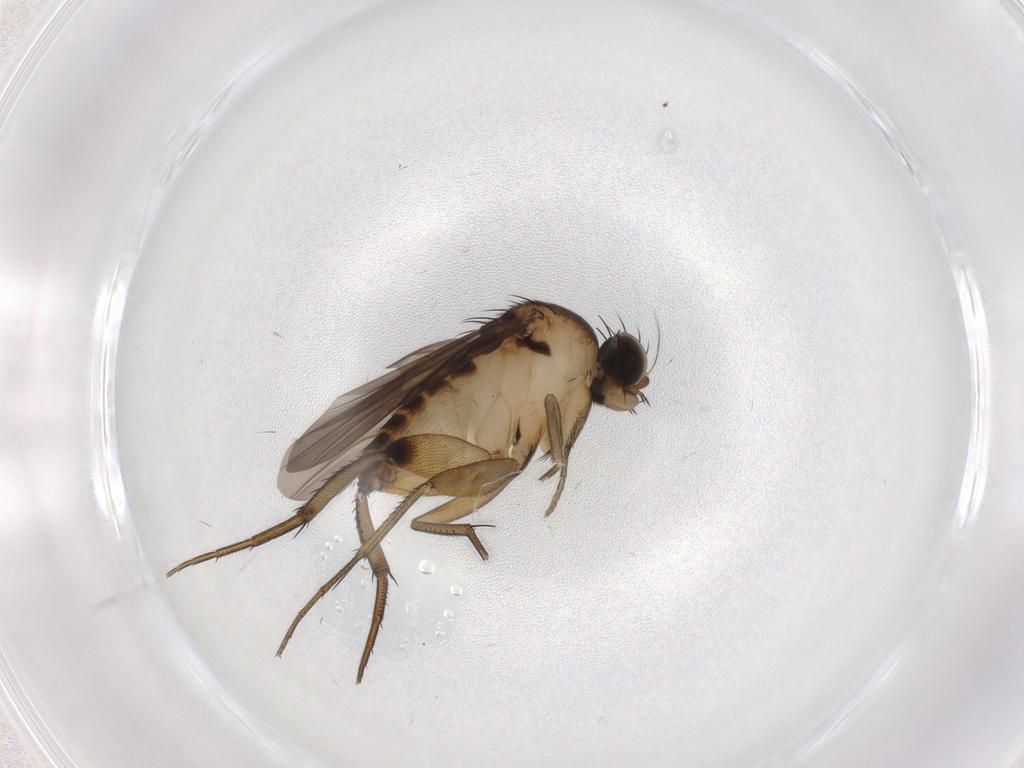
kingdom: Animalia
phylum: Arthropoda
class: Insecta
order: Diptera
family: Phoridae
